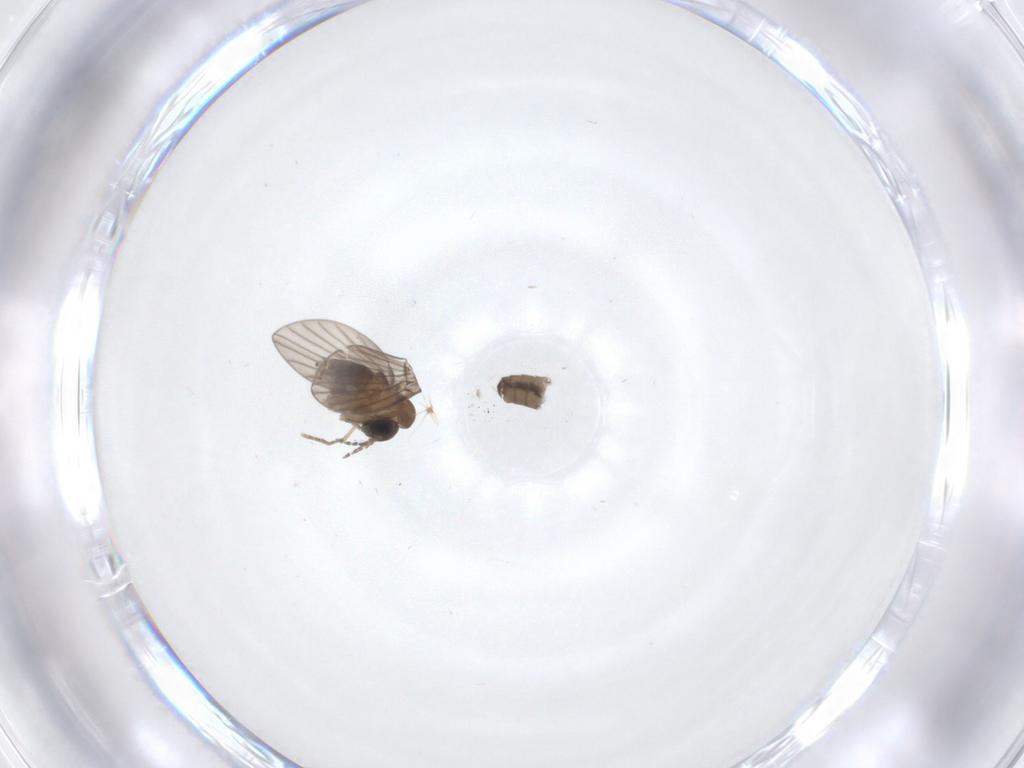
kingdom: Animalia
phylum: Arthropoda
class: Insecta
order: Diptera
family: Psychodidae
